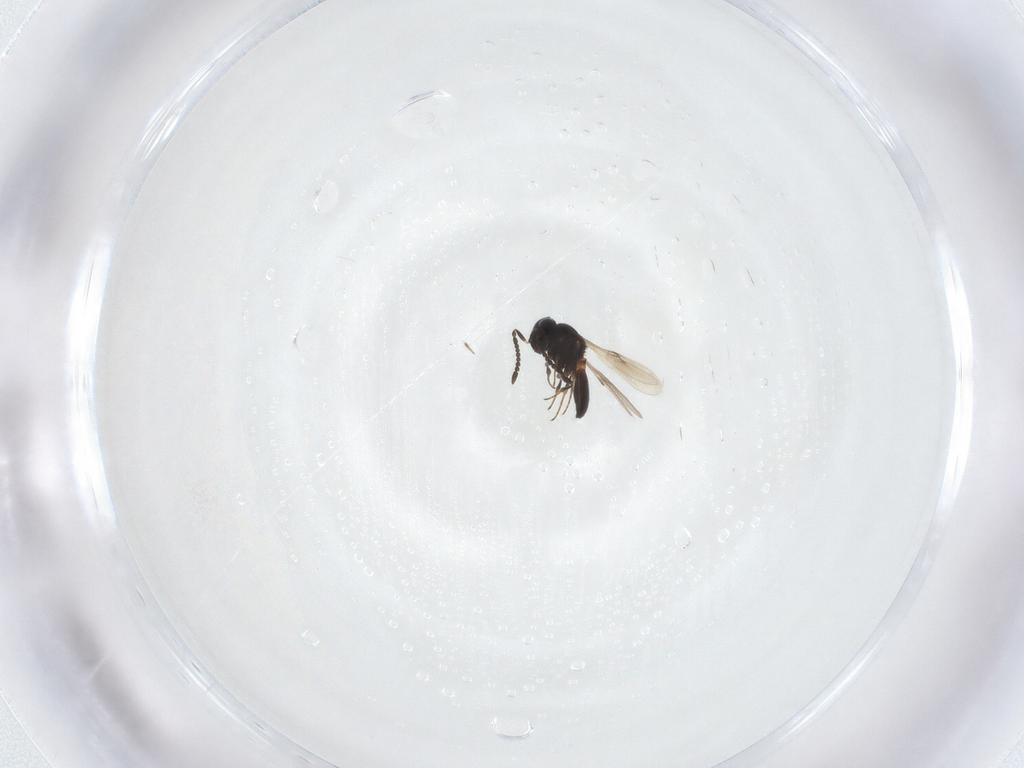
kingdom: Animalia
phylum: Arthropoda
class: Insecta
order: Hymenoptera
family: Scelionidae
